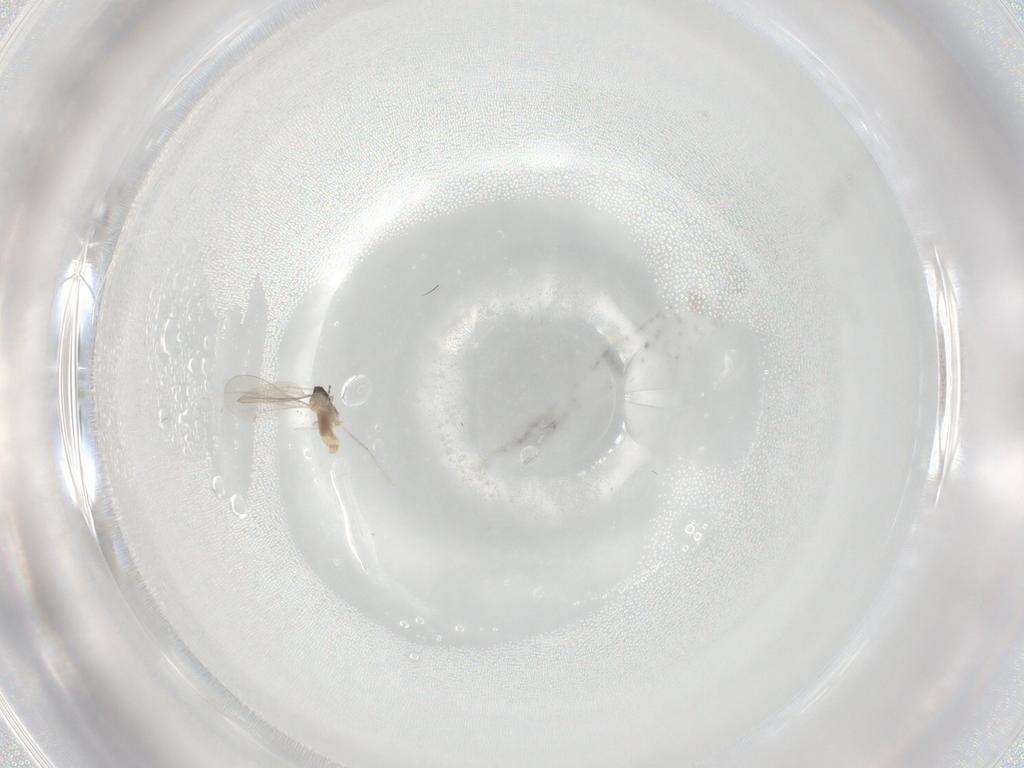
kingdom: Animalia
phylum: Arthropoda
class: Insecta
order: Diptera
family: Cecidomyiidae
